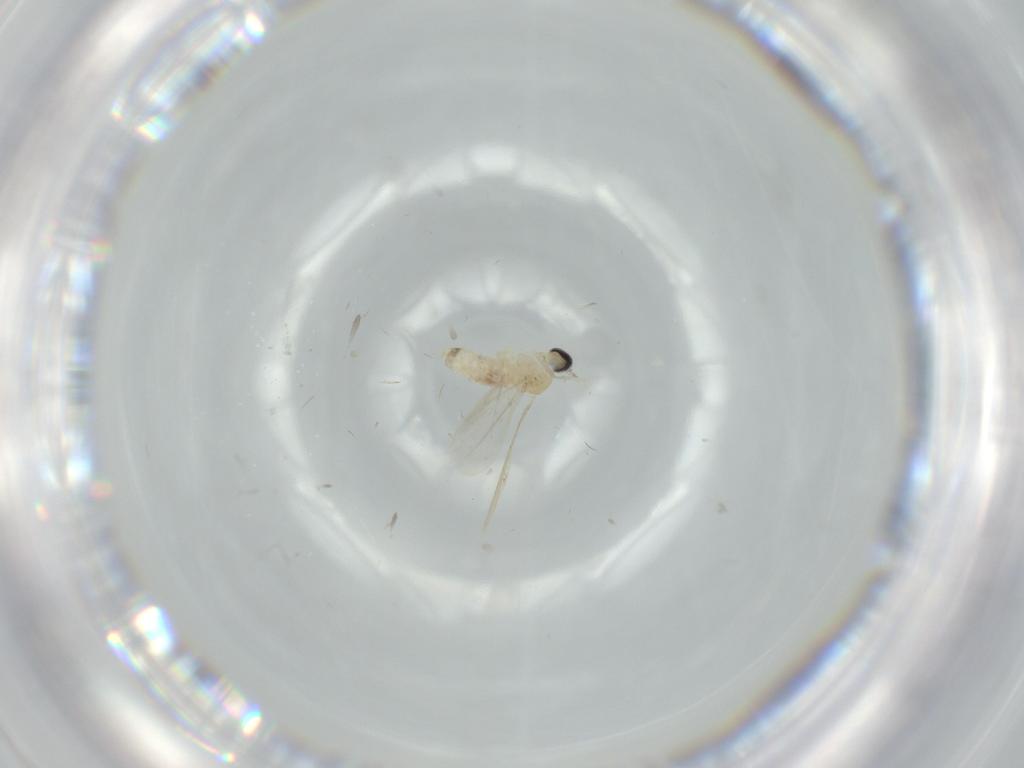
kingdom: Animalia
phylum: Arthropoda
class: Insecta
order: Diptera
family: Cecidomyiidae
